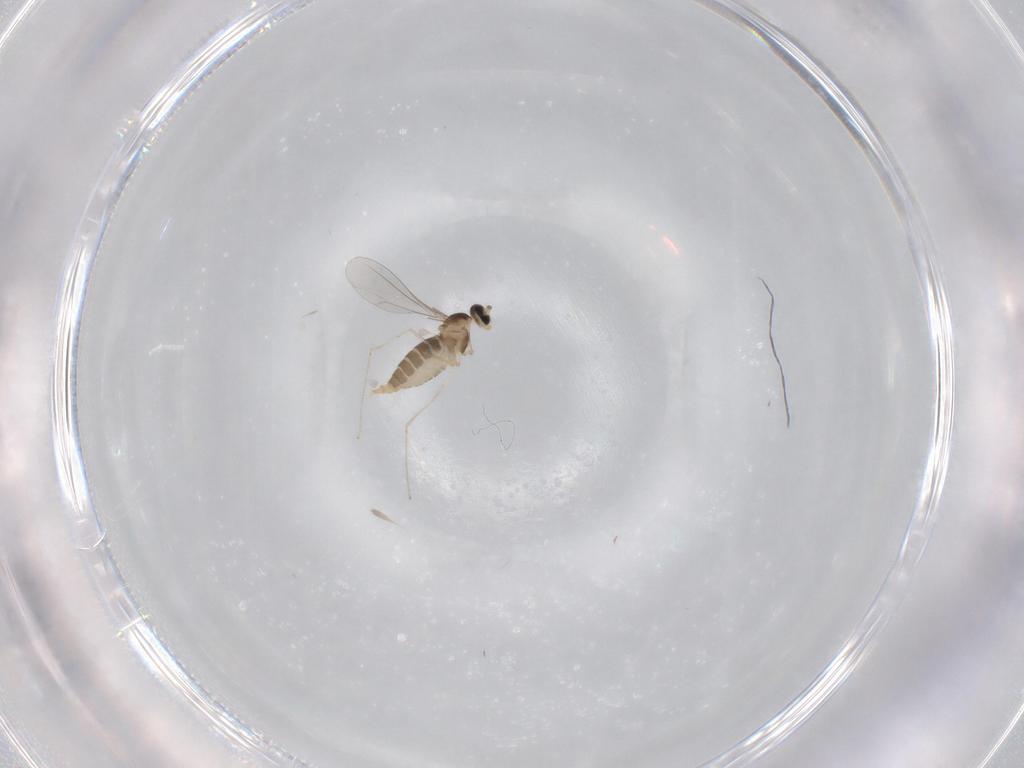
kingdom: Animalia
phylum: Arthropoda
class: Insecta
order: Diptera
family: Cecidomyiidae
